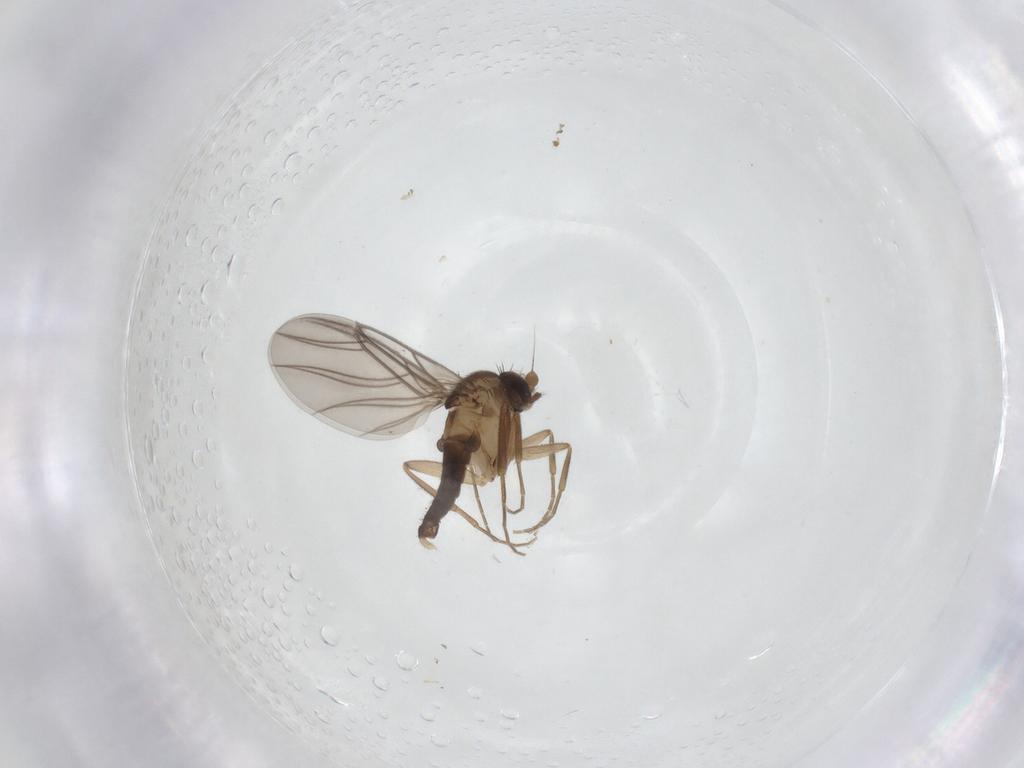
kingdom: Animalia
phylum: Arthropoda
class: Insecta
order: Diptera
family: Phoridae
